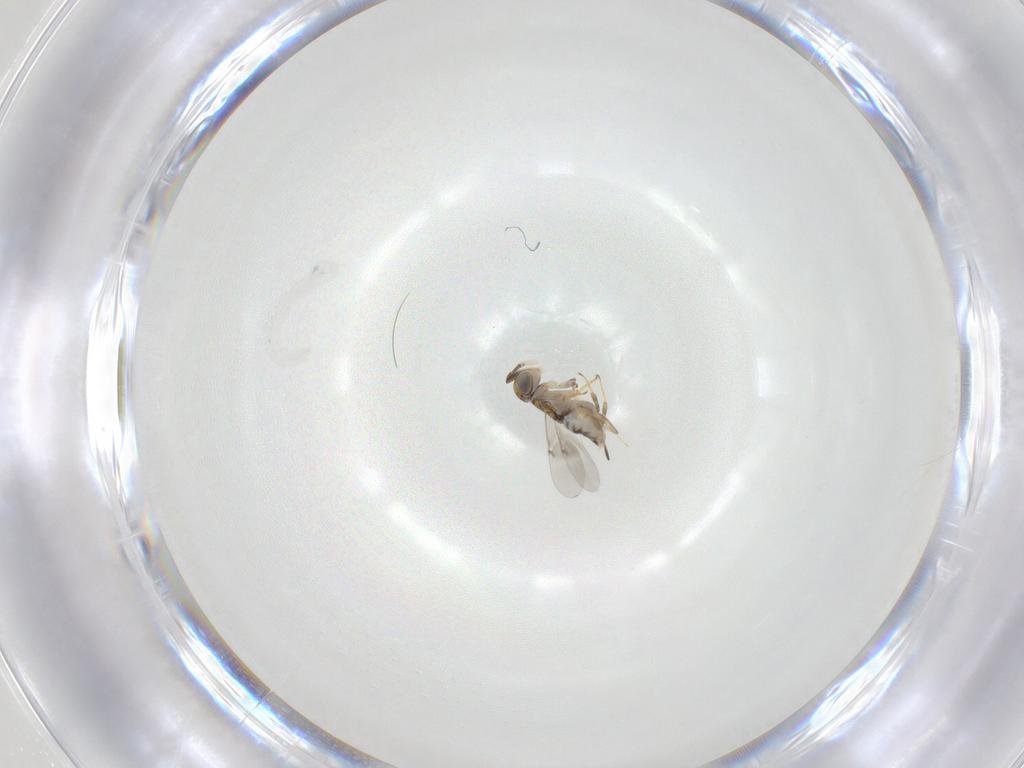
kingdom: Animalia
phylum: Arthropoda
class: Insecta
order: Hymenoptera
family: Encyrtidae
